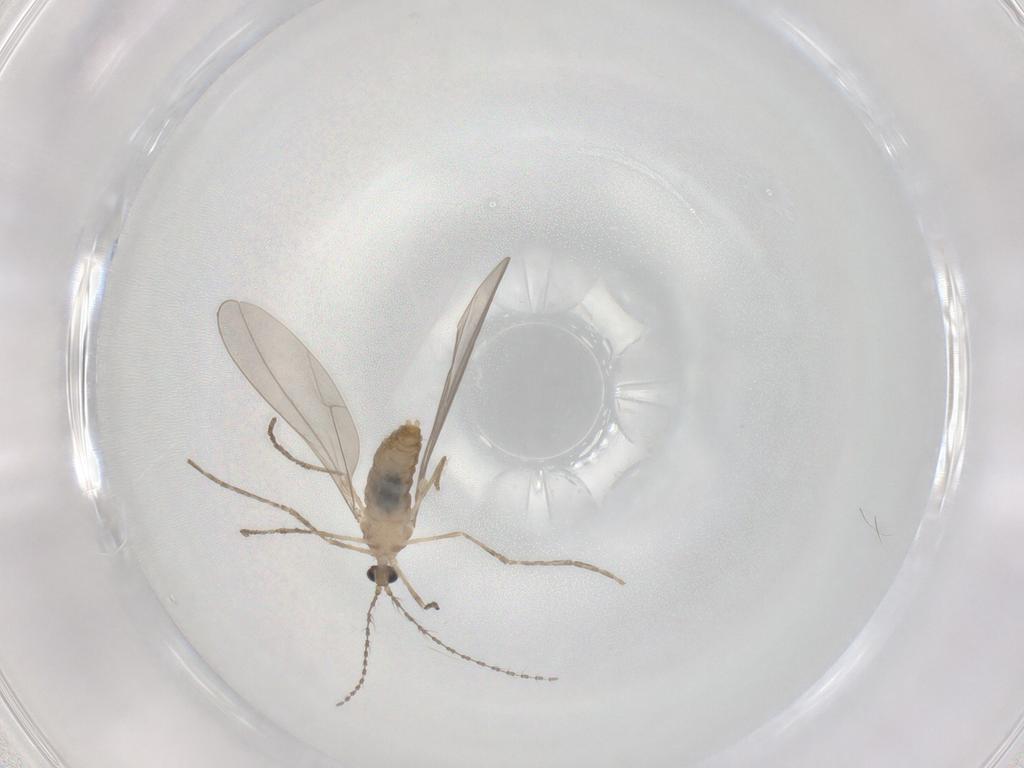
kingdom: Animalia
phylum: Arthropoda
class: Insecta
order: Diptera
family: Cecidomyiidae
